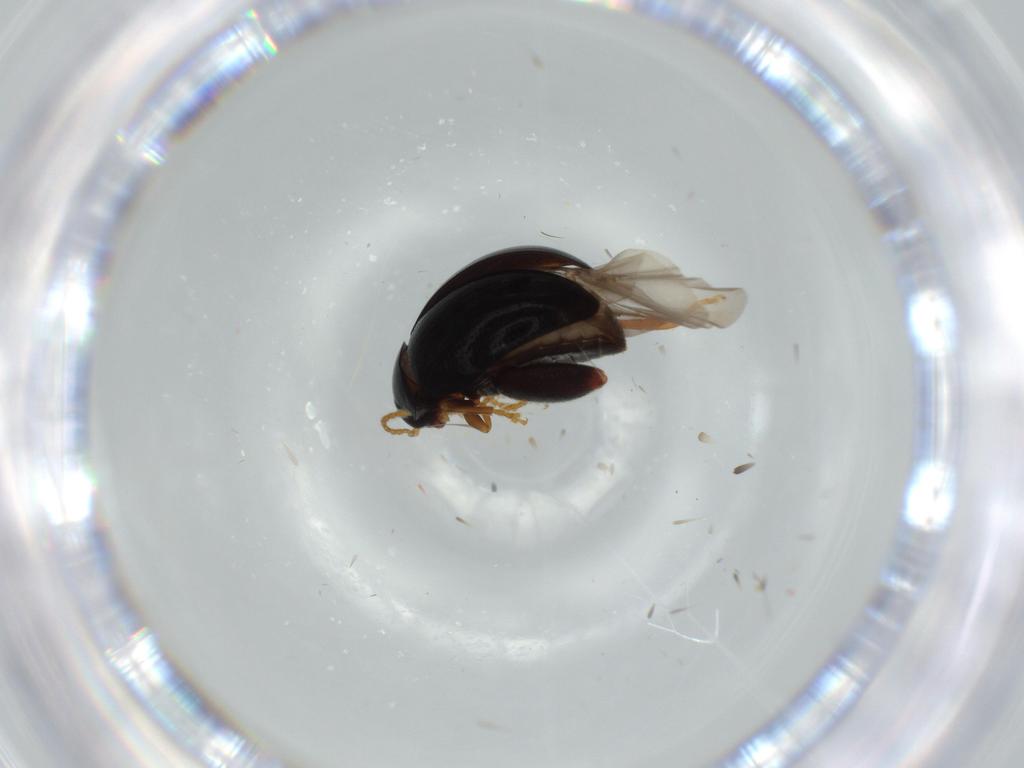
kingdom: Animalia
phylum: Arthropoda
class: Insecta
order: Coleoptera
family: Chrysomelidae
